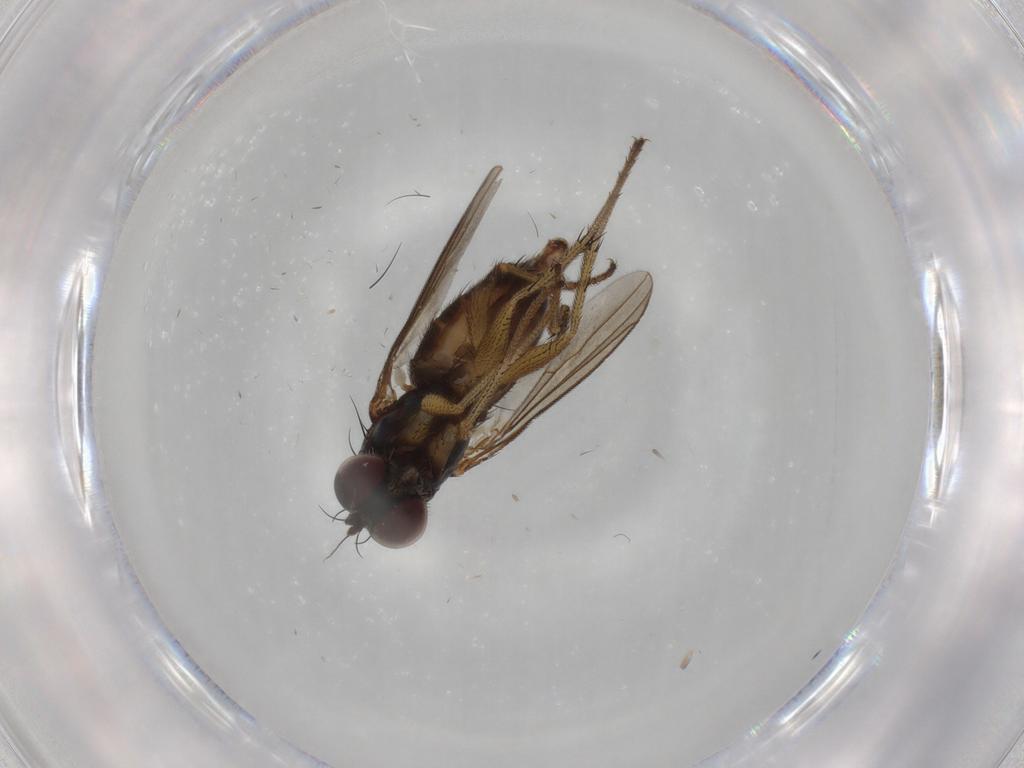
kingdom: Animalia
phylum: Arthropoda
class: Insecta
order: Diptera
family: Dolichopodidae
